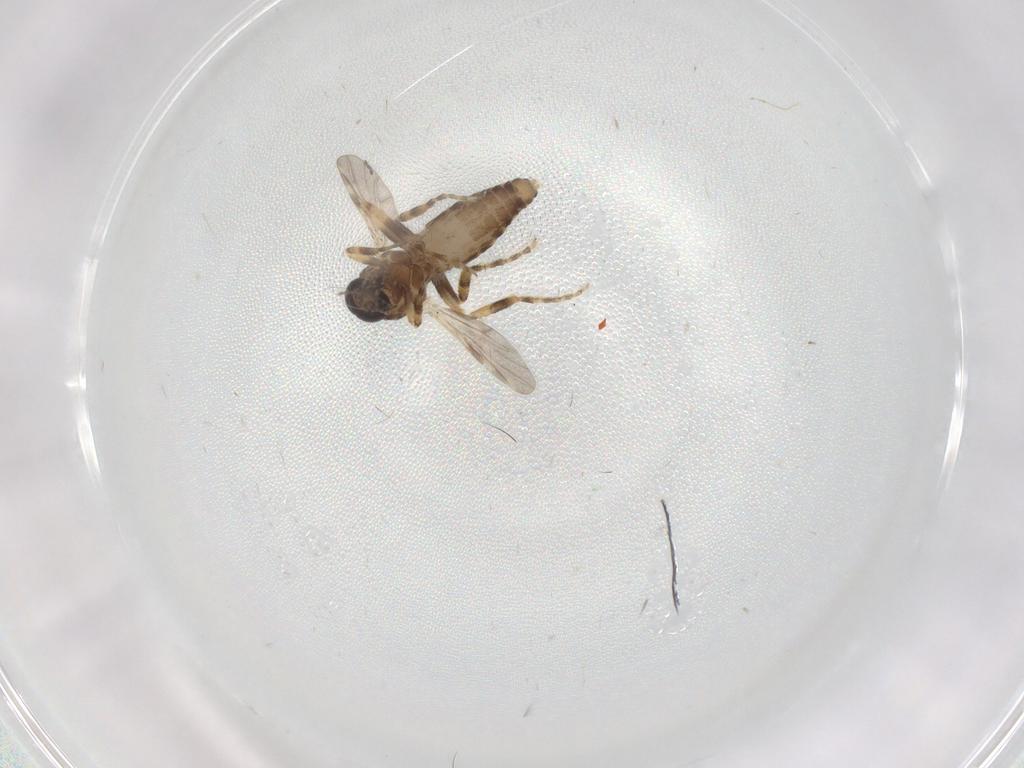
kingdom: Animalia
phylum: Arthropoda
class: Insecta
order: Diptera
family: Ceratopogonidae
